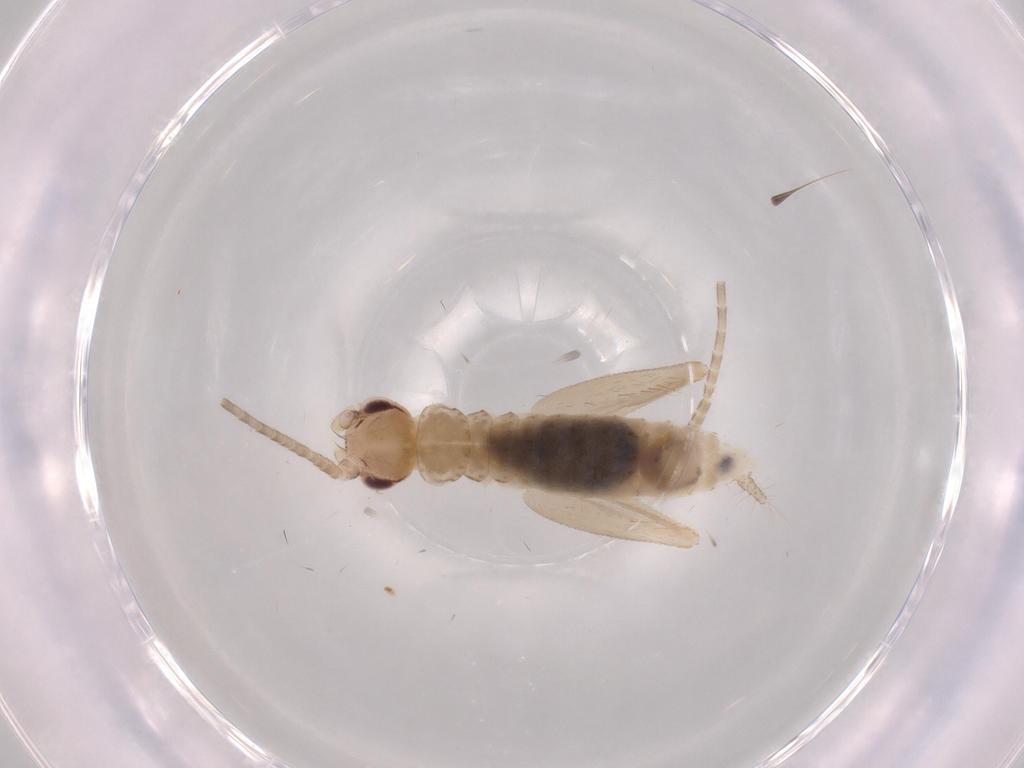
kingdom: Animalia
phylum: Arthropoda
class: Insecta
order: Orthoptera
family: Gryllidae
